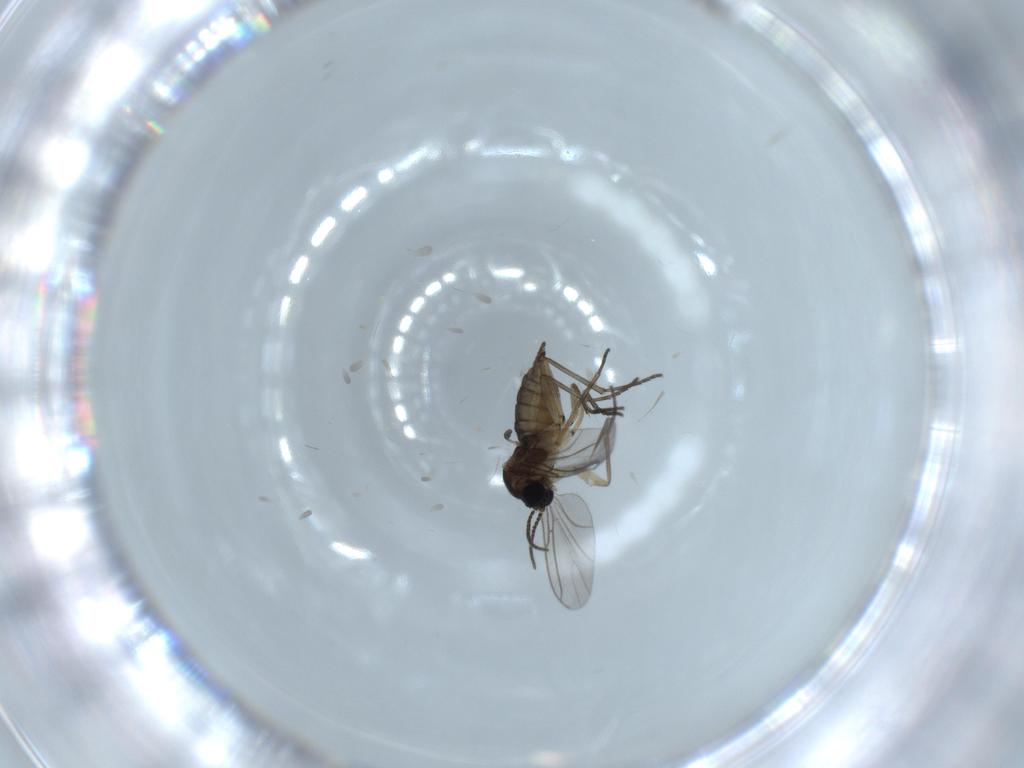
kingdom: Animalia
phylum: Arthropoda
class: Insecta
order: Diptera
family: Sciaridae
